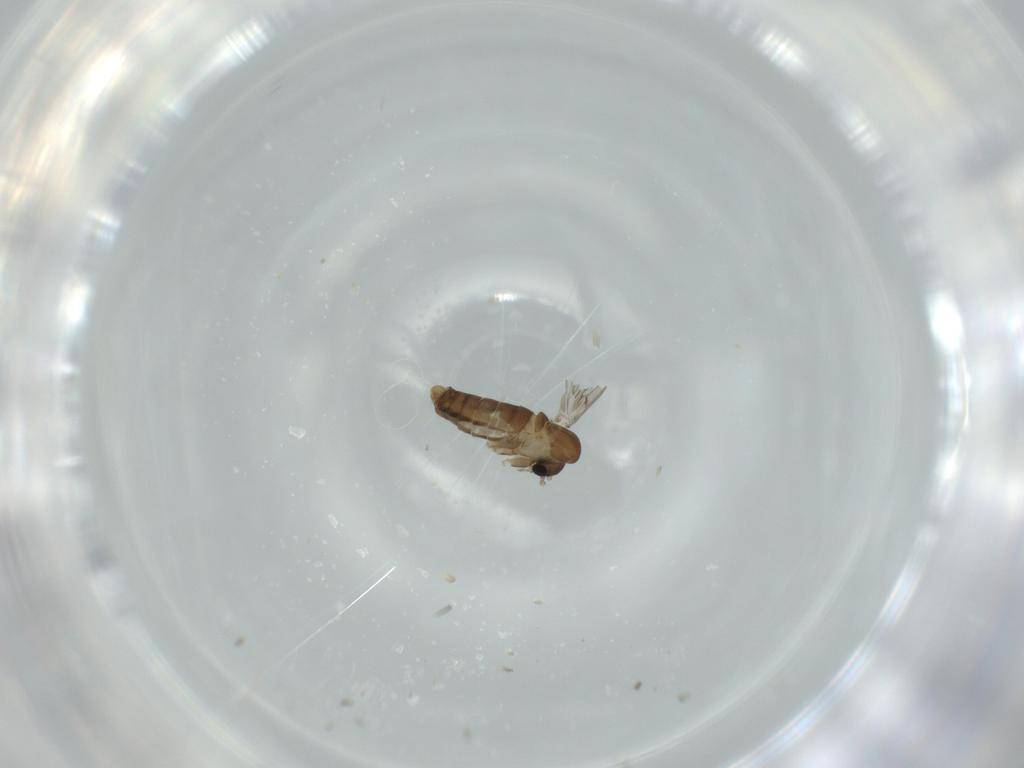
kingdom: Animalia
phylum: Arthropoda
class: Insecta
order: Diptera
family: Phoridae
